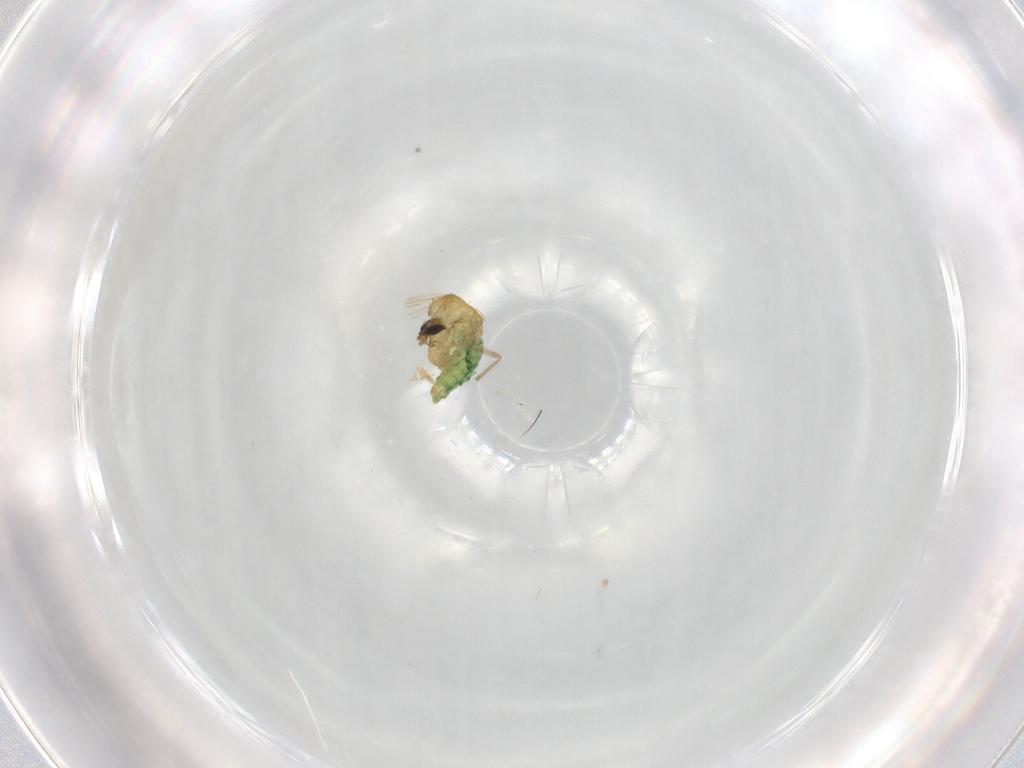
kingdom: Animalia
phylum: Arthropoda
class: Insecta
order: Diptera
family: Chironomidae
